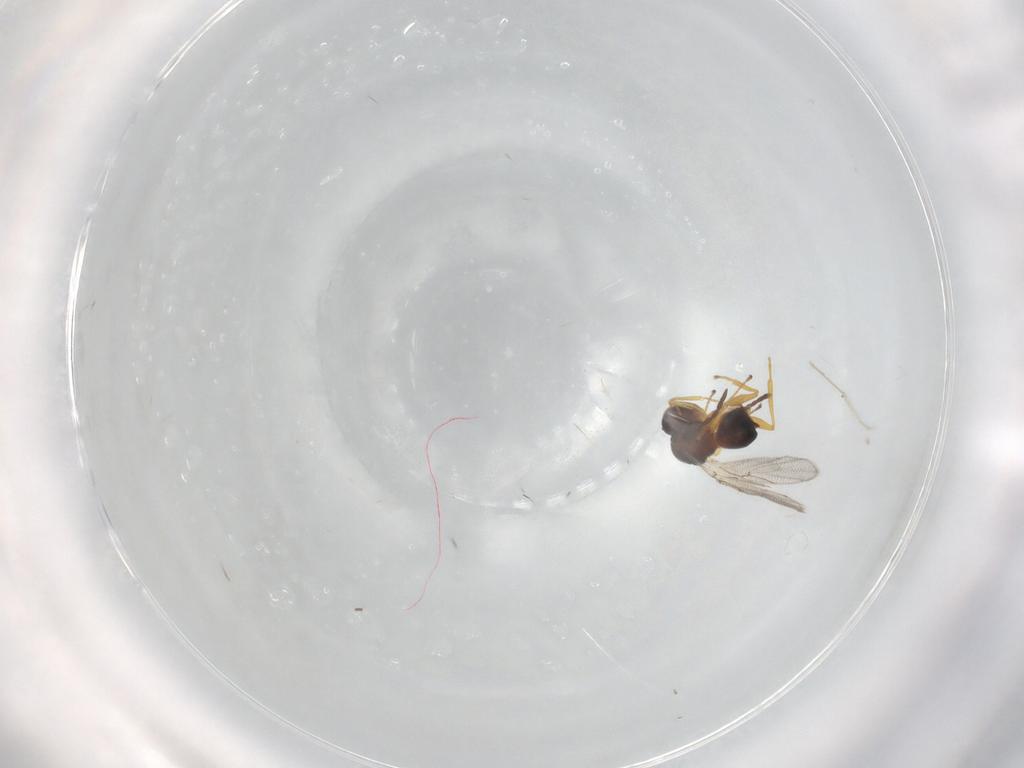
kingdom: Animalia
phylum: Arthropoda
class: Insecta
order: Hymenoptera
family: Figitidae
